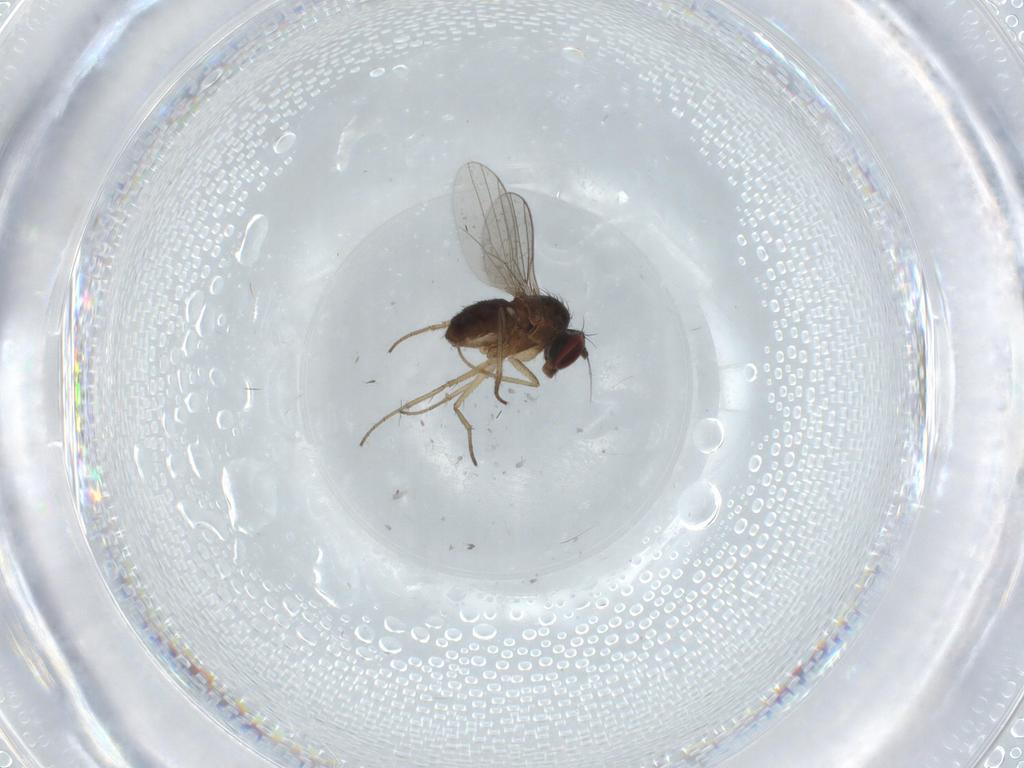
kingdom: Animalia
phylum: Arthropoda
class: Insecta
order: Diptera
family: Dolichopodidae
